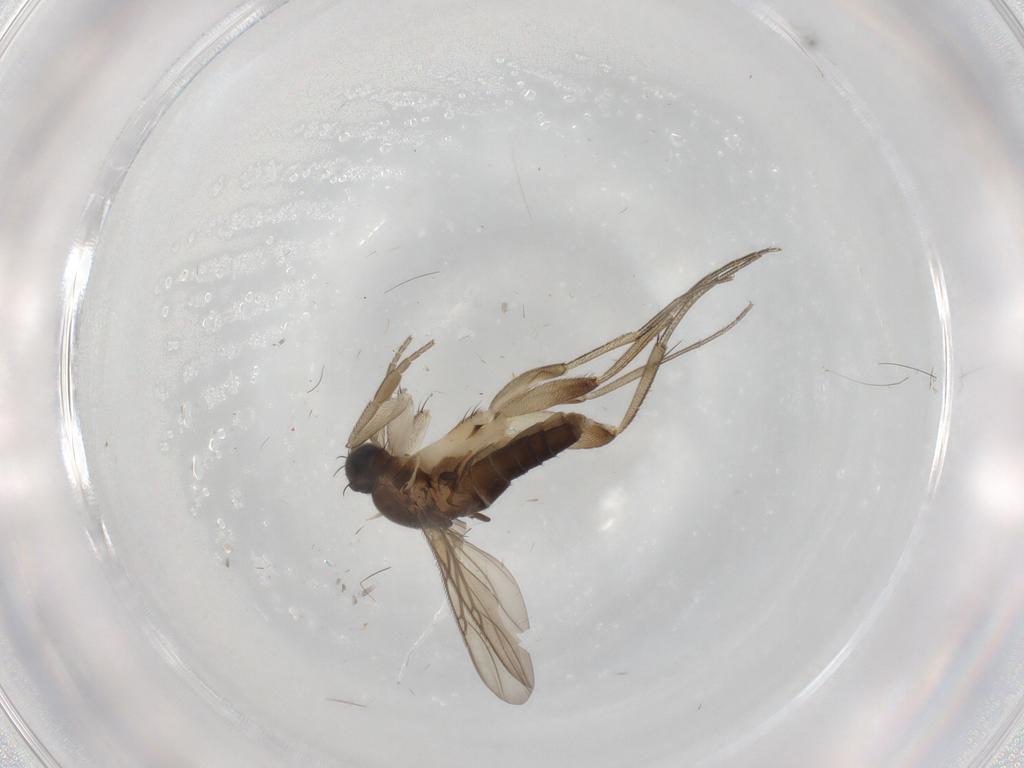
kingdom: Animalia
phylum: Arthropoda
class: Insecta
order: Diptera
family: Phoridae
